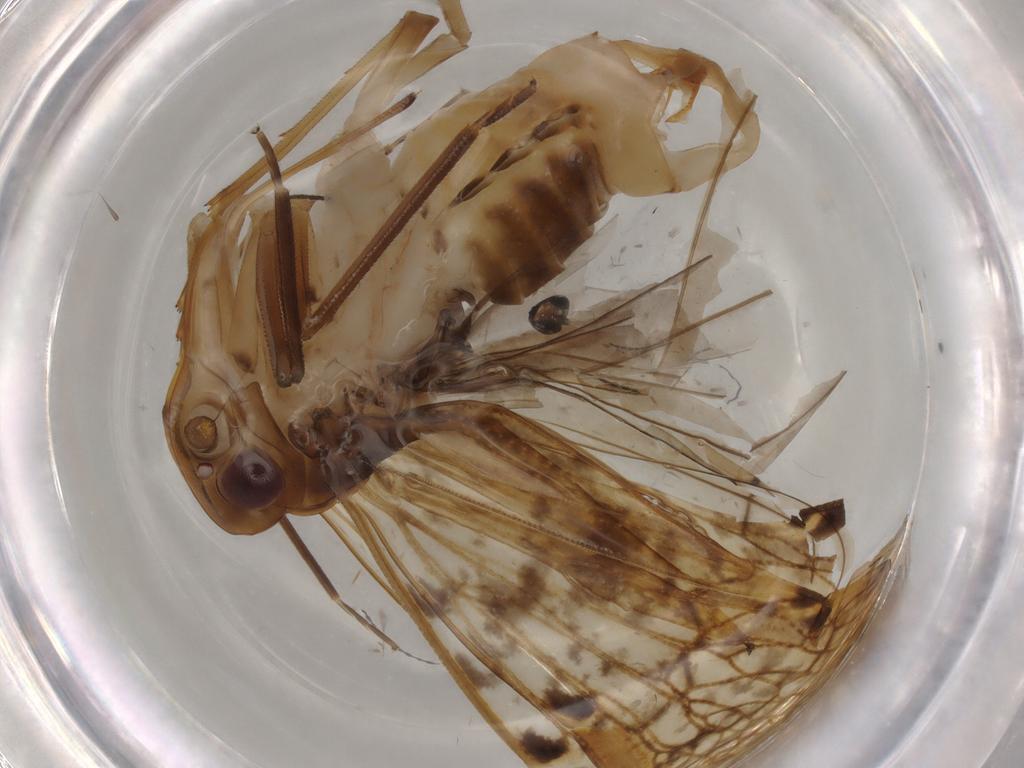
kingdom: Animalia
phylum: Arthropoda
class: Insecta
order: Hemiptera
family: Cixiidae
